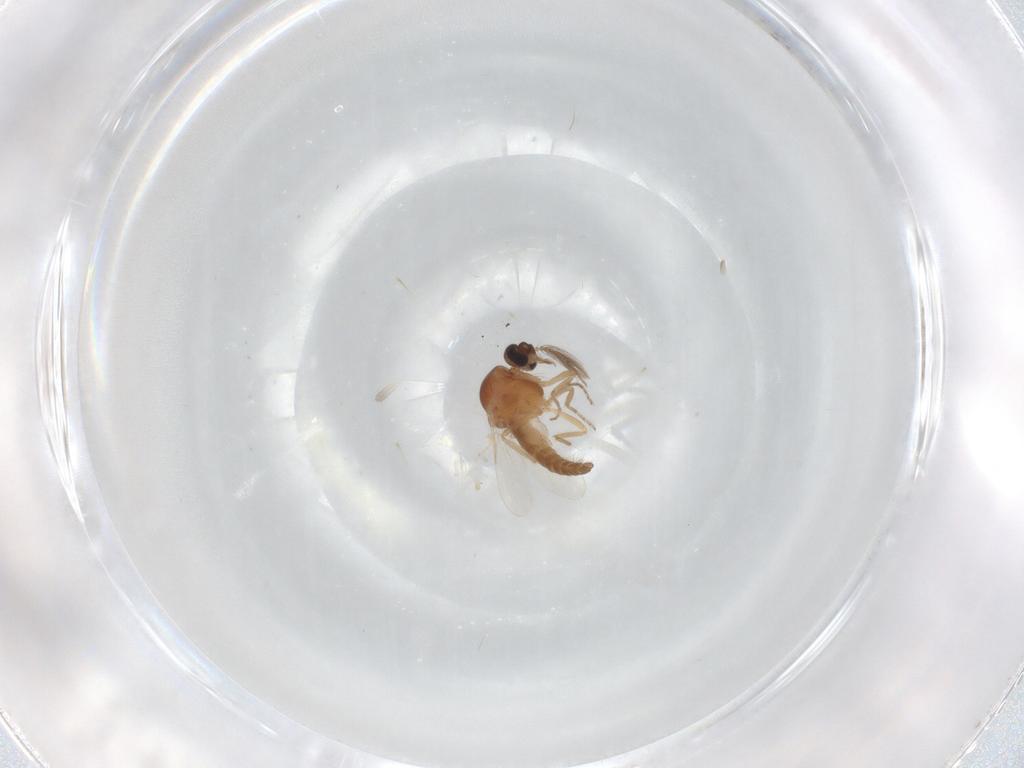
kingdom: Animalia
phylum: Arthropoda
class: Insecta
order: Diptera
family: Ceratopogonidae
